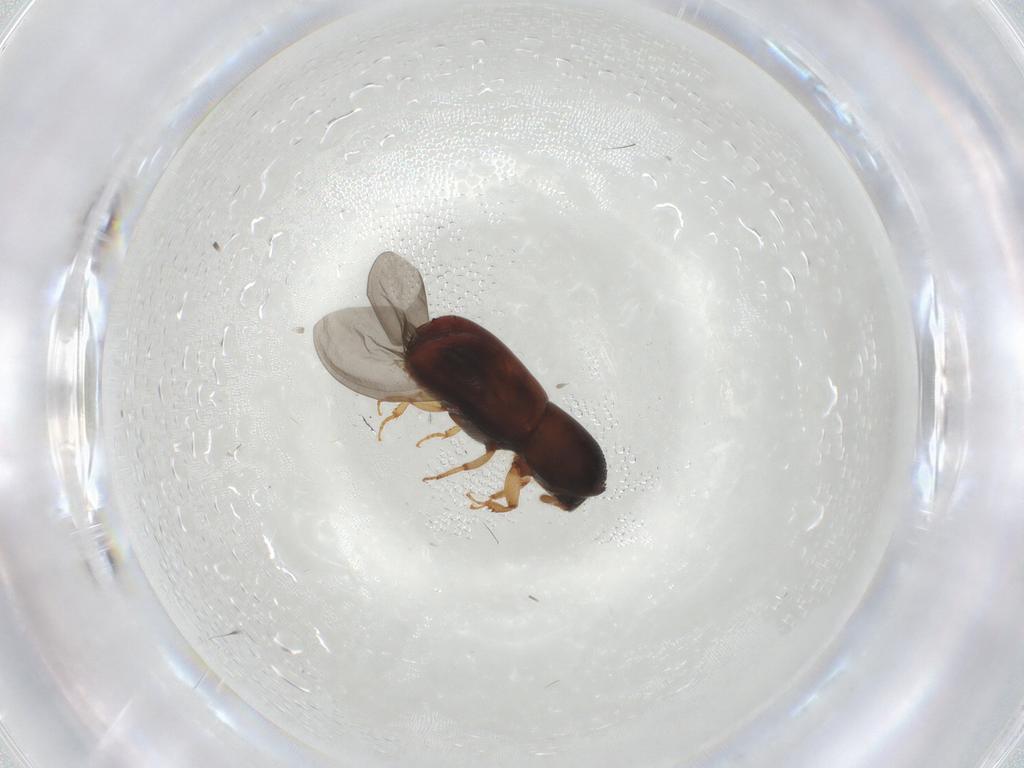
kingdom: Animalia
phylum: Arthropoda
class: Insecta
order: Coleoptera
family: Curculionidae
